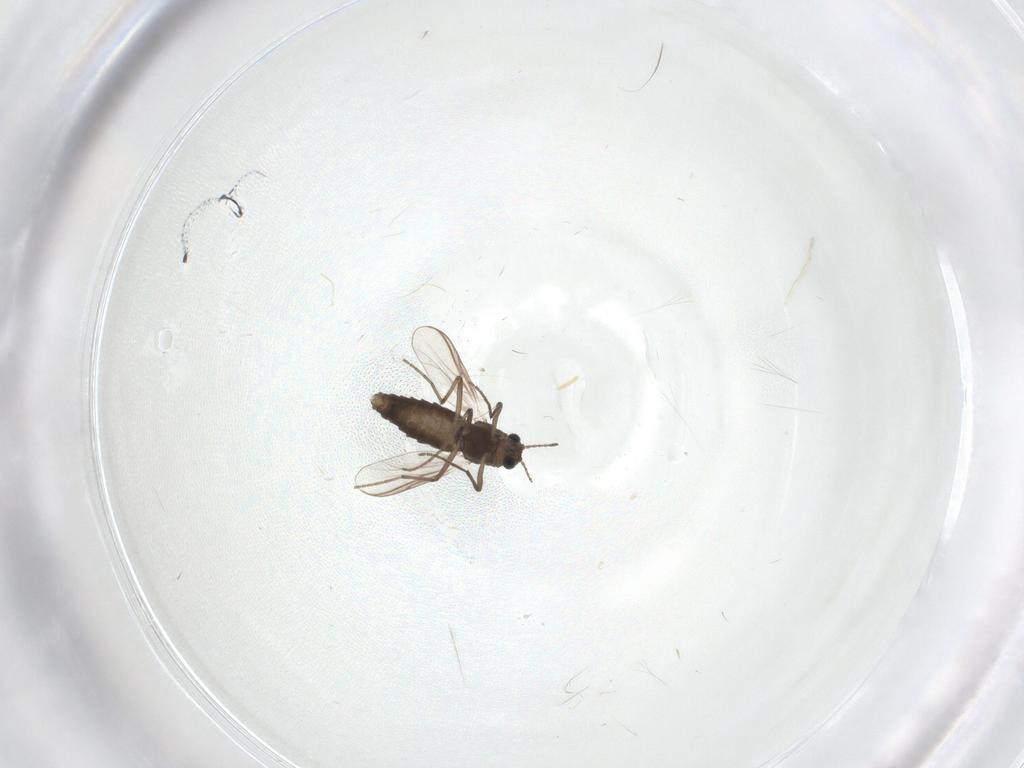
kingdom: Animalia
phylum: Arthropoda
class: Insecta
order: Diptera
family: Cecidomyiidae
